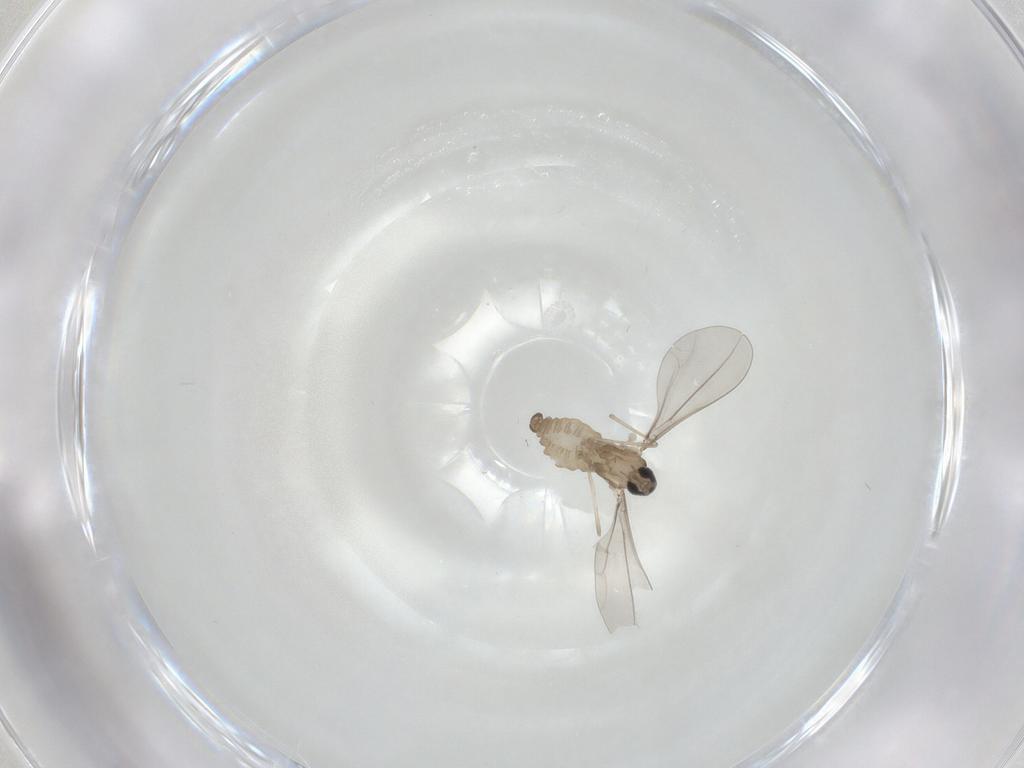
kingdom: Animalia
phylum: Arthropoda
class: Insecta
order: Diptera
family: Cecidomyiidae
